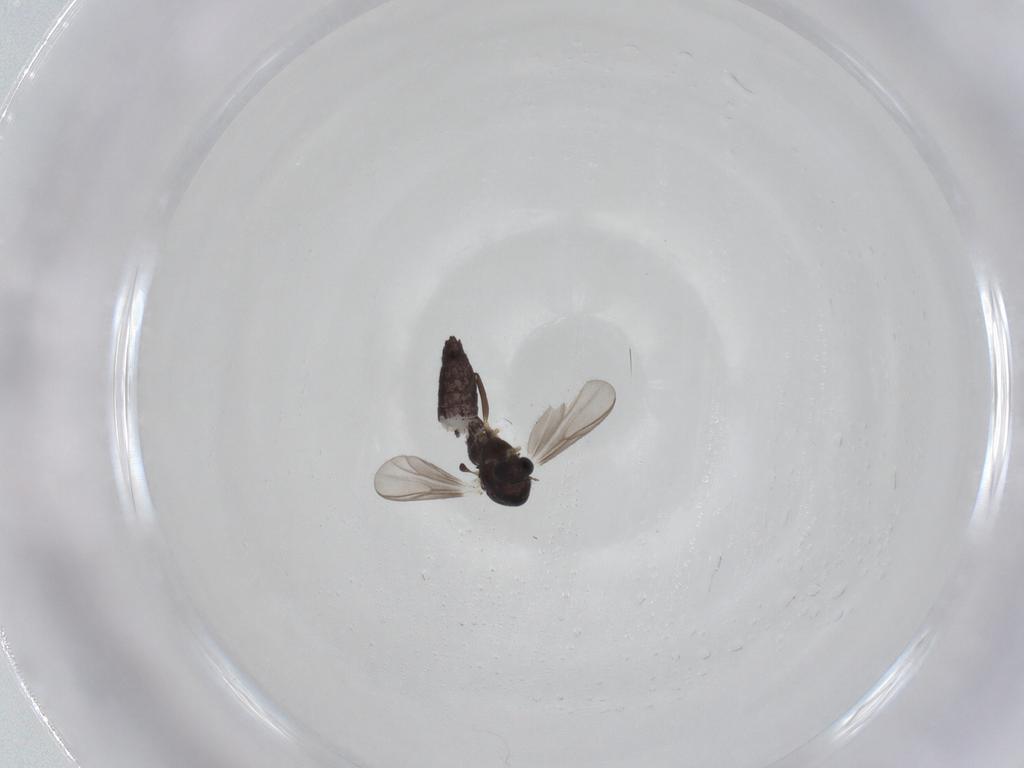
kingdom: Animalia
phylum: Arthropoda
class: Insecta
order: Diptera
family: Chironomidae
